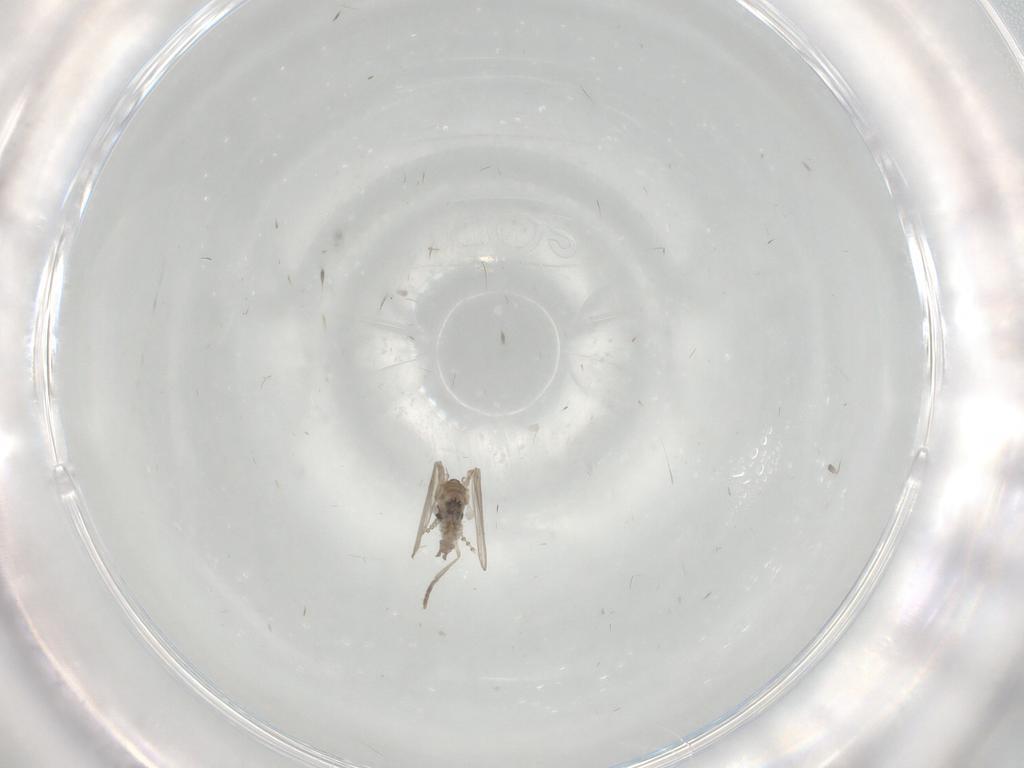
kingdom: Animalia
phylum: Arthropoda
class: Insecta
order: Diptera
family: Psychodidae
